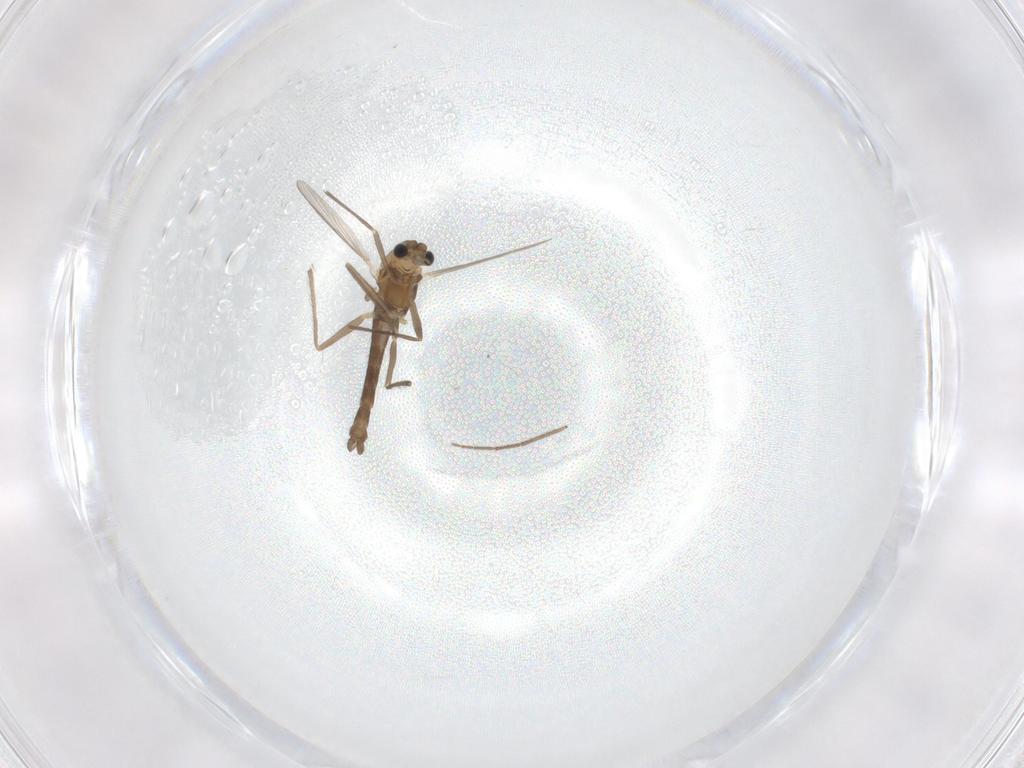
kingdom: Animalia
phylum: Arthropoda
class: Insecta
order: Diptera
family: Chironomidae
